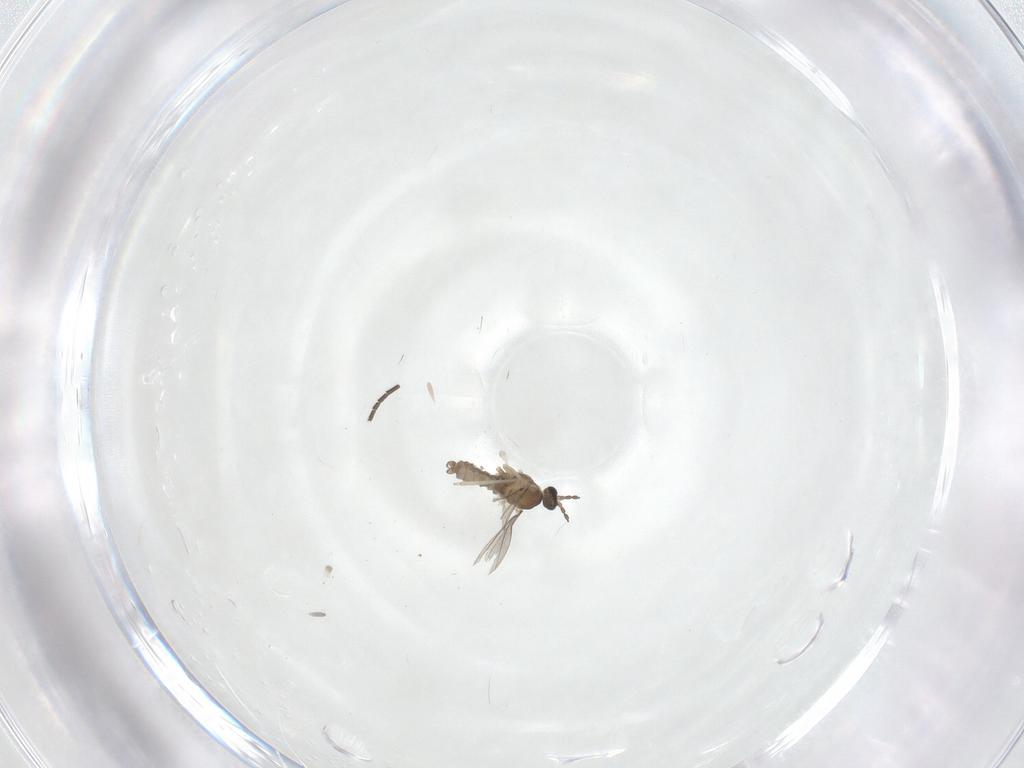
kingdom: Animalia
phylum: Arthropoda
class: Insecta
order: Diptera
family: Cecidomyiidae
